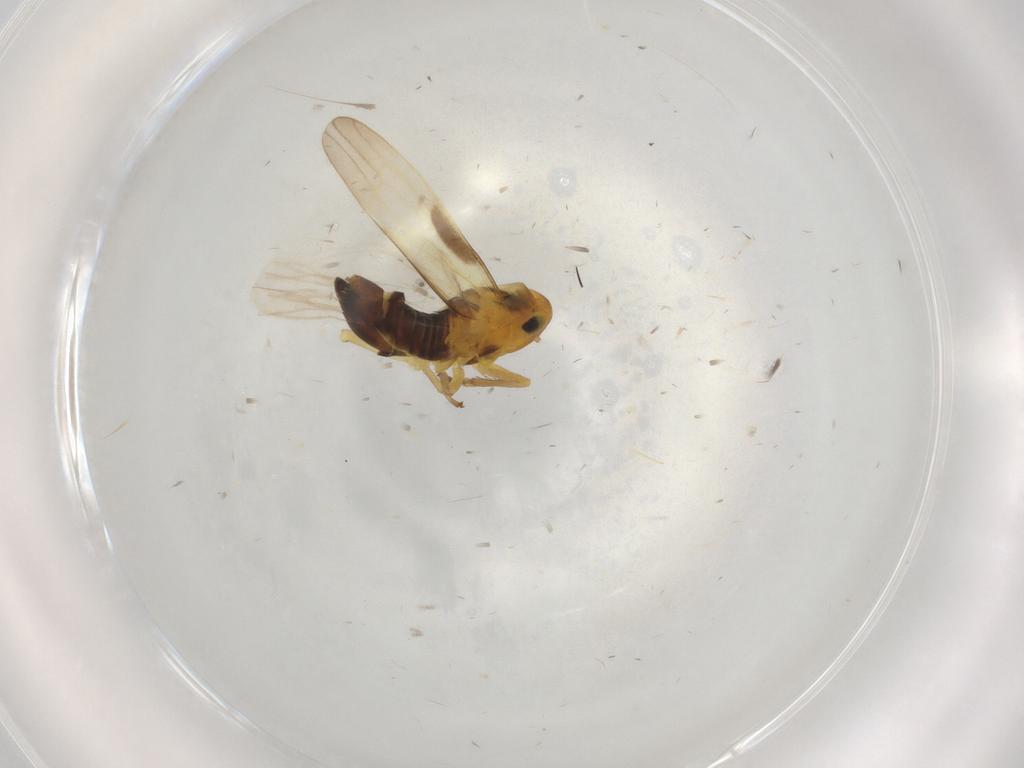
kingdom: Animalia
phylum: Arthropoda
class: Insecta
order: Hemiptera
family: Cicadellidae
